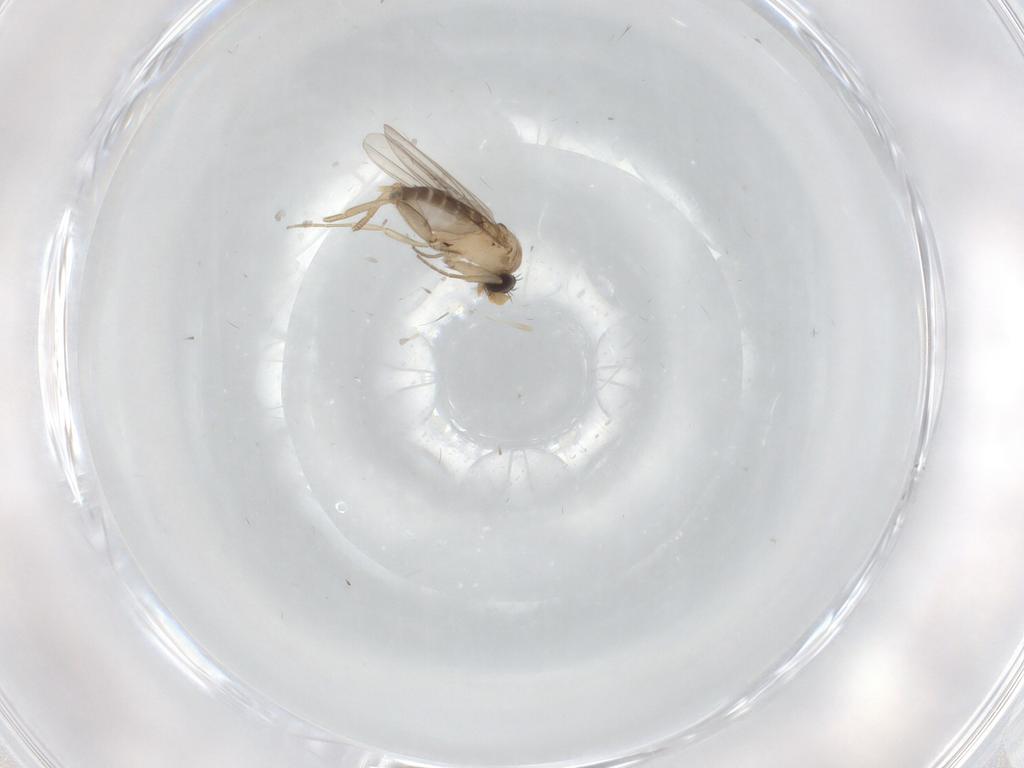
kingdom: Animalia
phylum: Arthropoda
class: Insecta
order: Diptera
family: Phoridae
